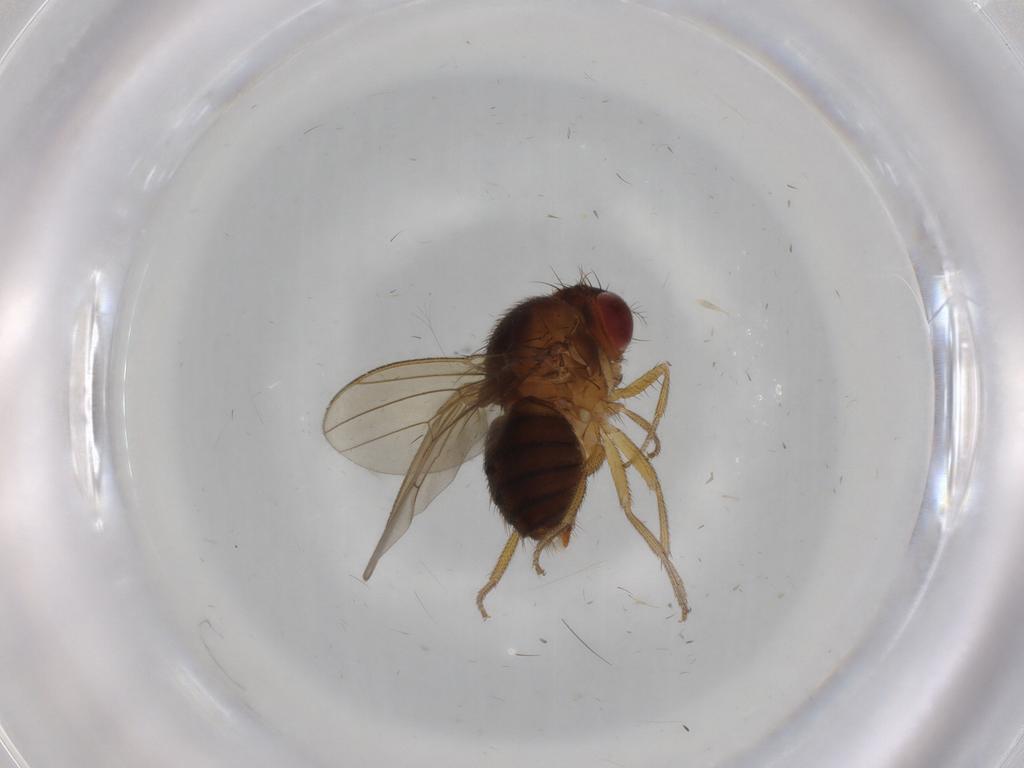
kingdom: Animalia
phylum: Arthropoda
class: Insecta
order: Diptera
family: Drosophilidae
